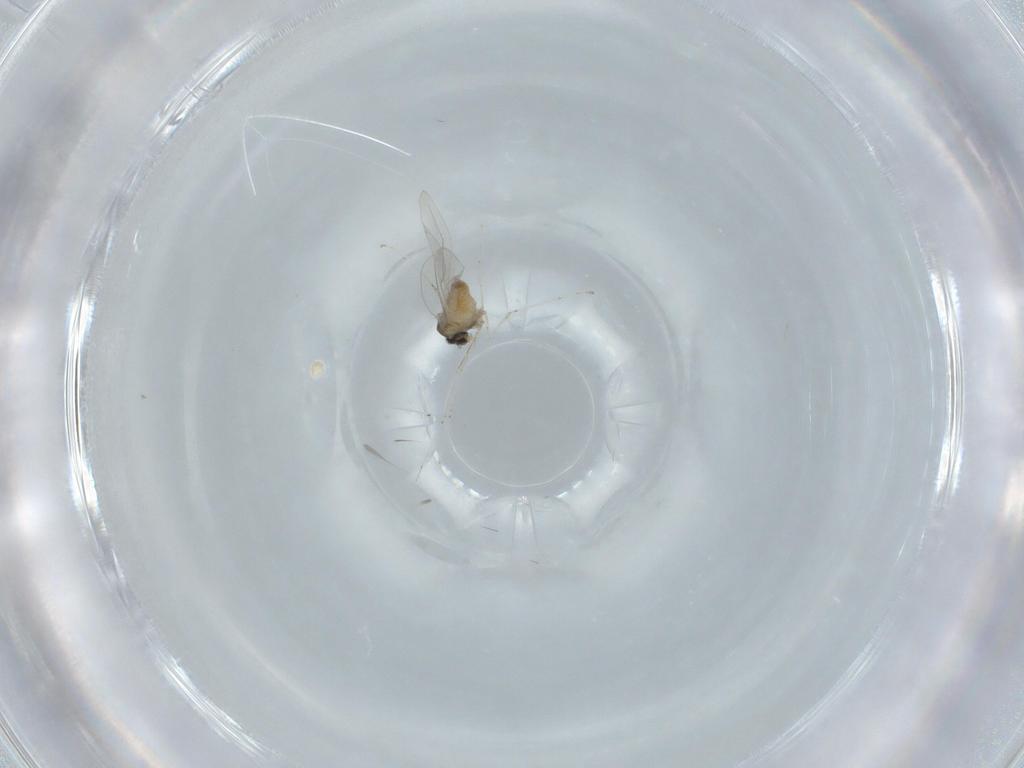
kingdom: Animalia
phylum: Arthropoda
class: Insecta
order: Diptera
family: Cecidomyiidae
